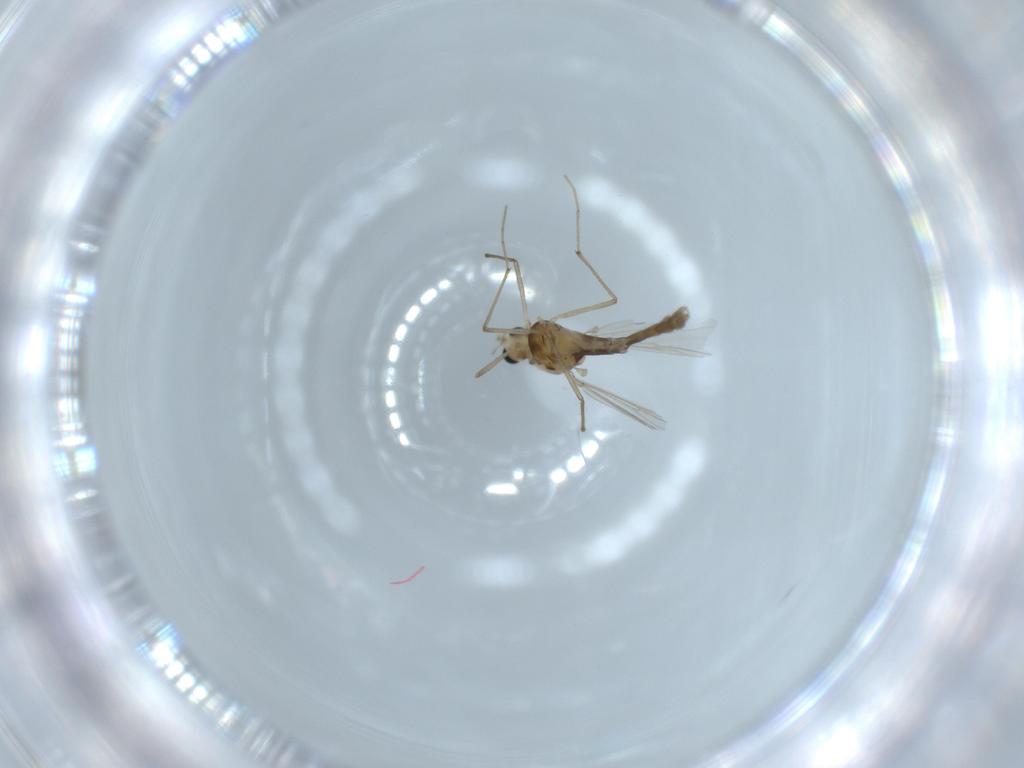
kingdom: Animalia
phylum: Arthropoda
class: Insecta
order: Diptera
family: Chironomidae
